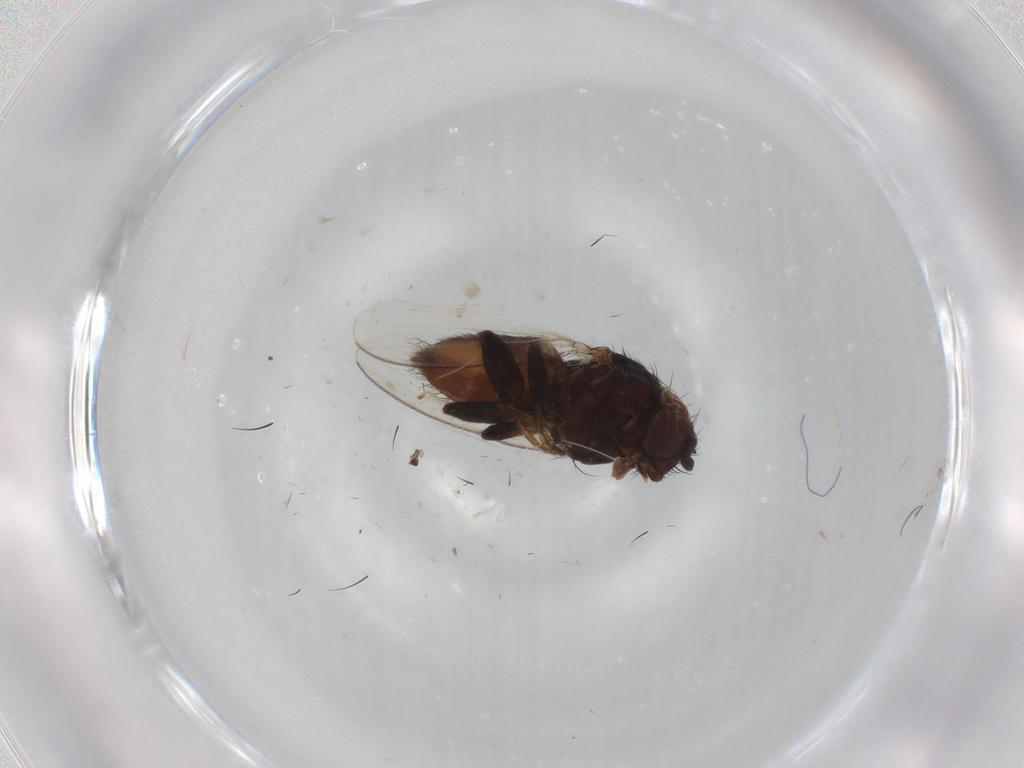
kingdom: Animalia
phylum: Arthropoda
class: Insecta
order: Diptera
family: Milichiidae
